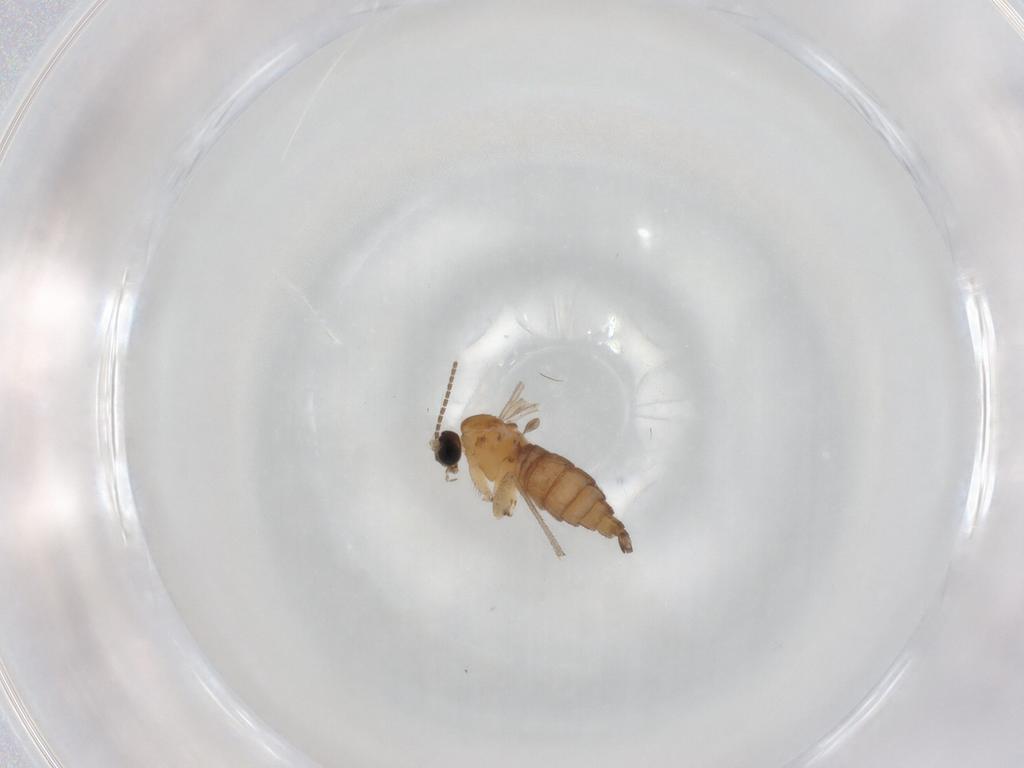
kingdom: Animalia
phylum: Arthropoda
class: Insecta
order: Diptera
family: Sciaridae
